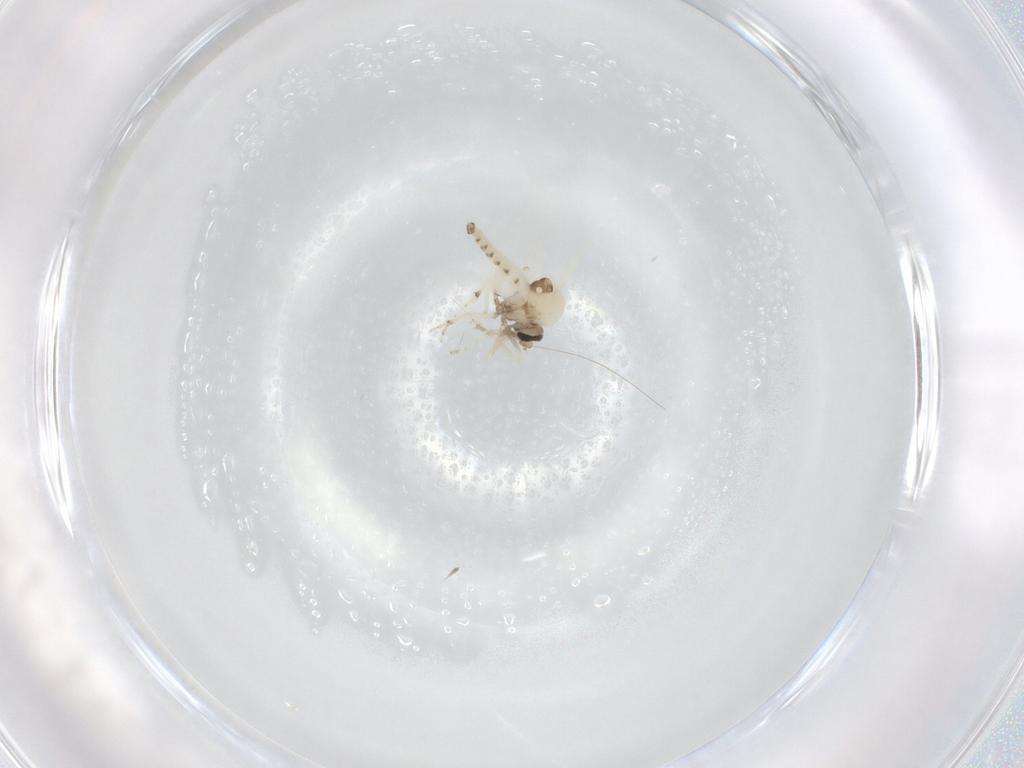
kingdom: Animalia
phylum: Arthropoda
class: Insecta
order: Diptera
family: Ceratopogonidae
